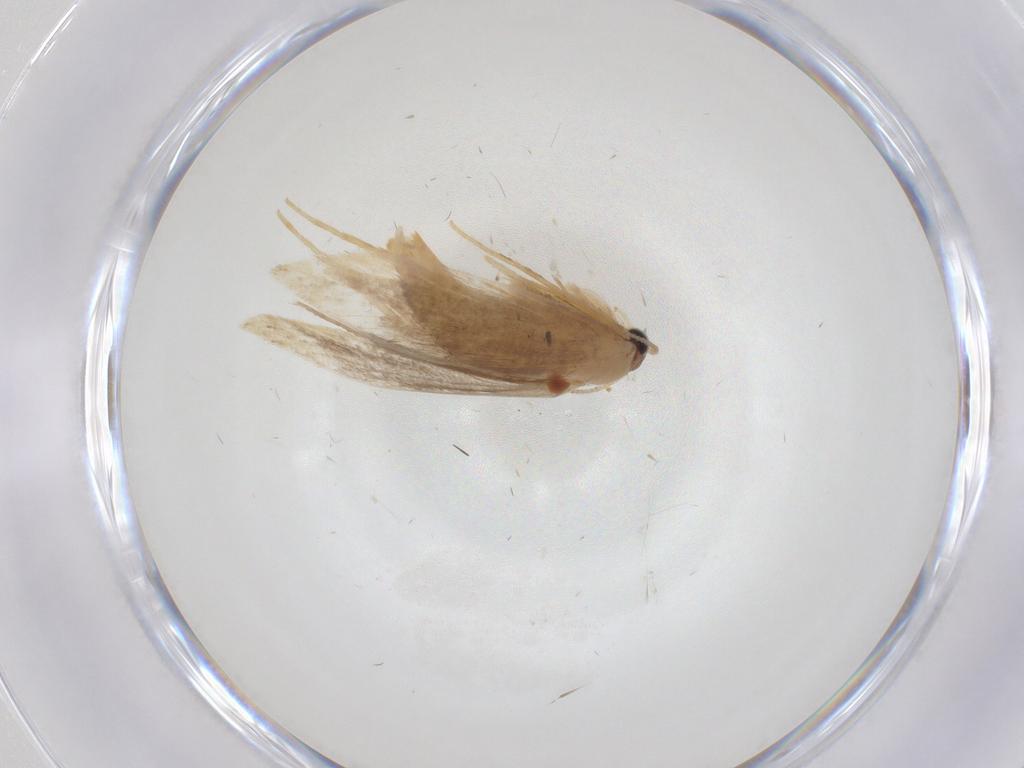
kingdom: Animalia
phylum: Arthropoda
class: Insecta
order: Lepidoptera
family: Bucculatricidae
